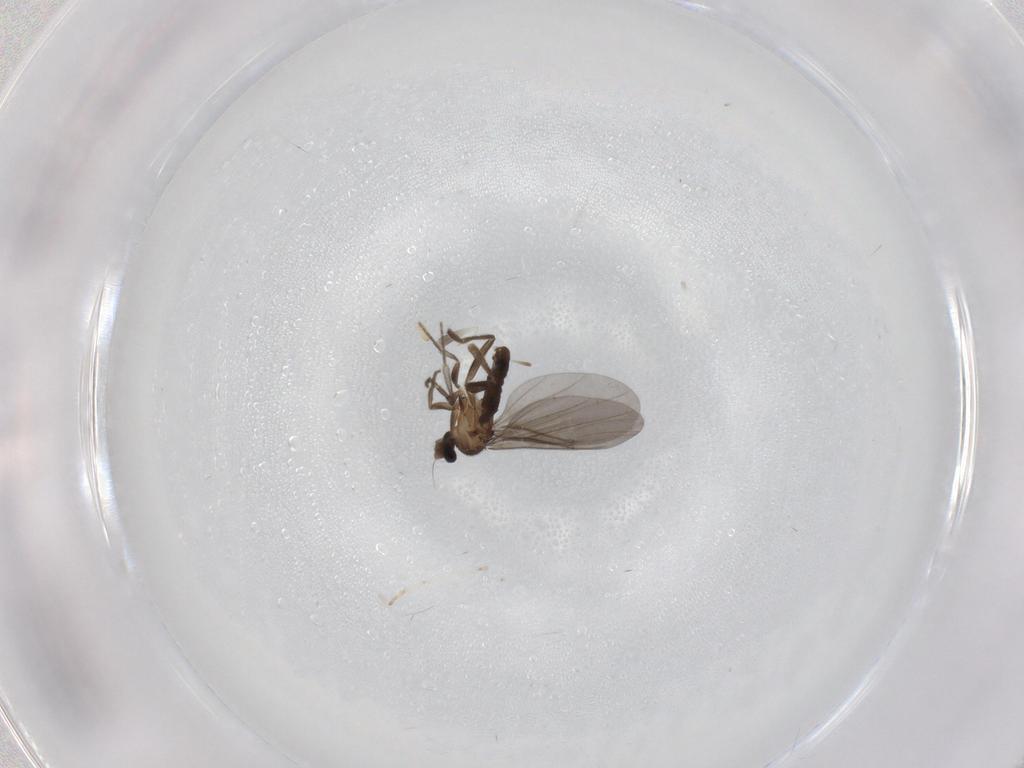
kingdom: Animalia
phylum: Arthropoda
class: Insecta
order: Diptera
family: Phoridae
